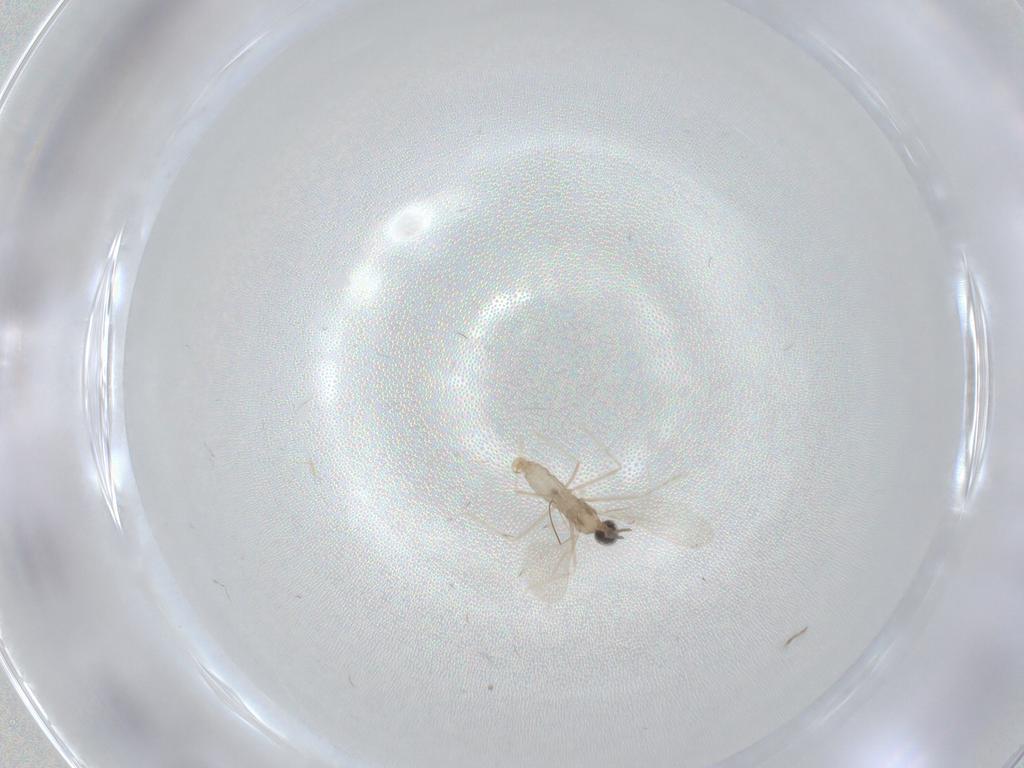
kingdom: Animalia
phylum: Arthropoda
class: Insecta
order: Diptera
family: Cecidomyiidae
